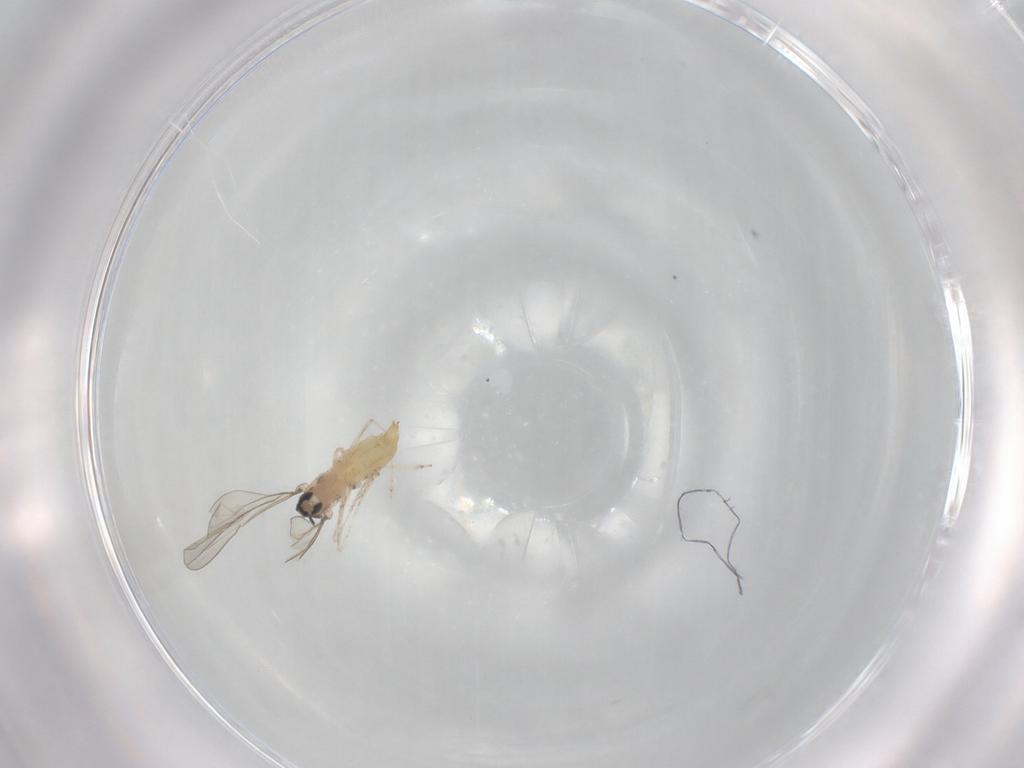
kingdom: Animalia
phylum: Arthropoda
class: Insecta
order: Diptera
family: Cecidomyiidae
